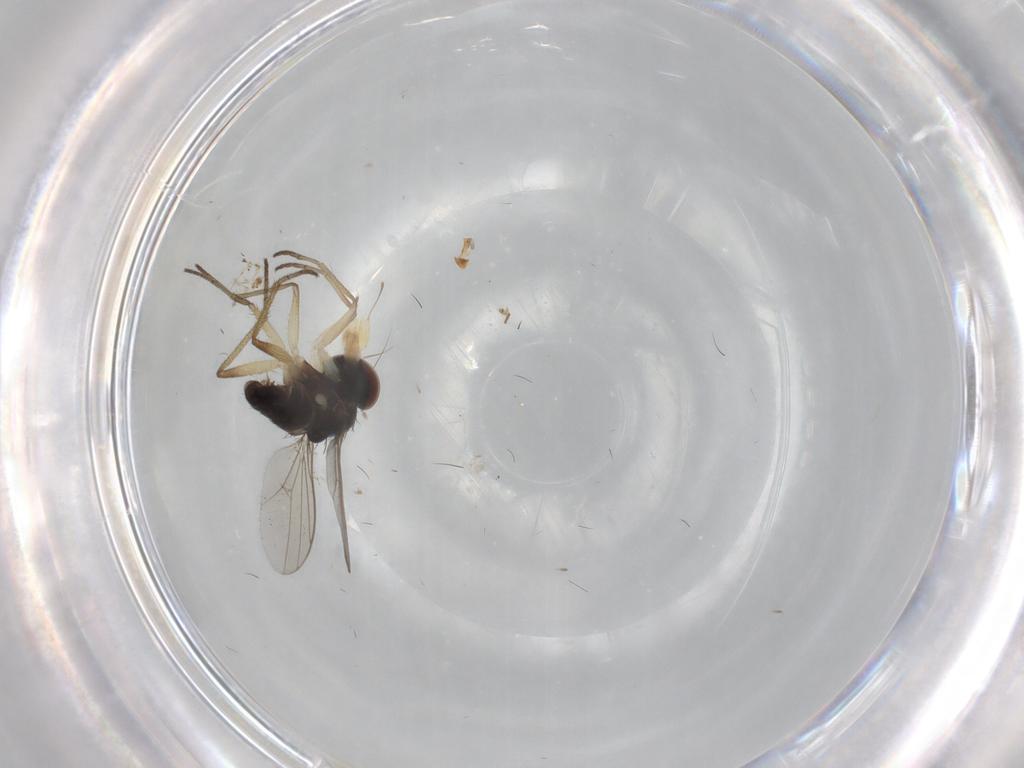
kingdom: Animalia
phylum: Arthropoda
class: Insecta
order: Diptera
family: Dolichopodidae
